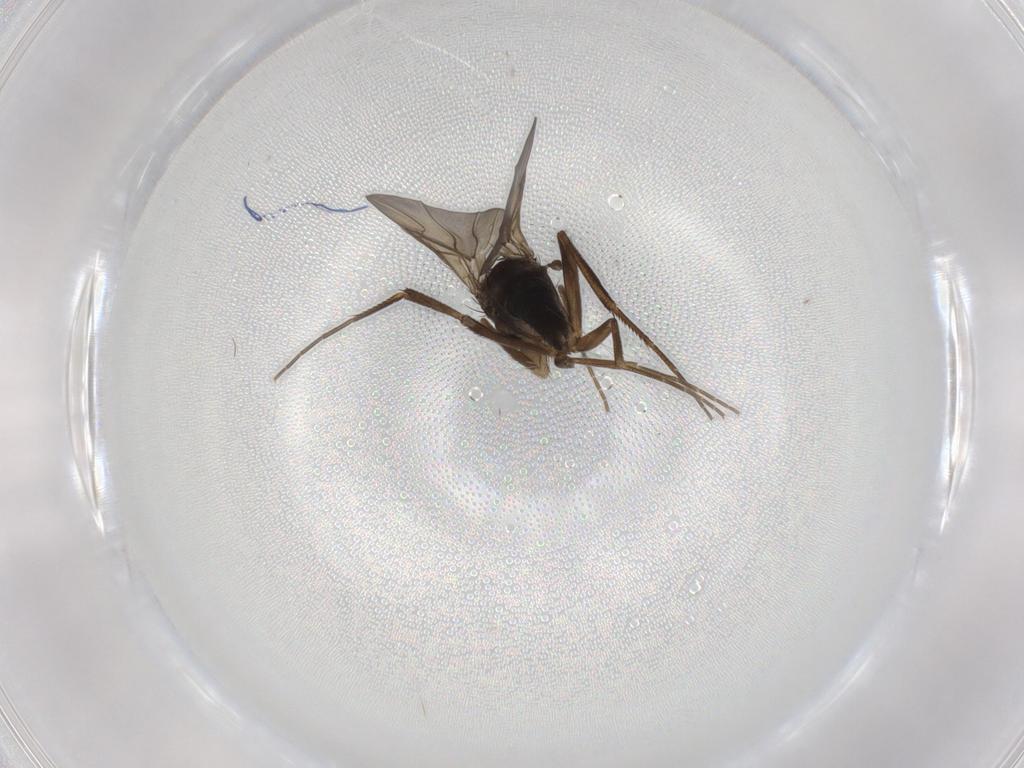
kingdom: Animalia
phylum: Arthropoda
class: Insecta
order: Diptera
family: Phoridae
